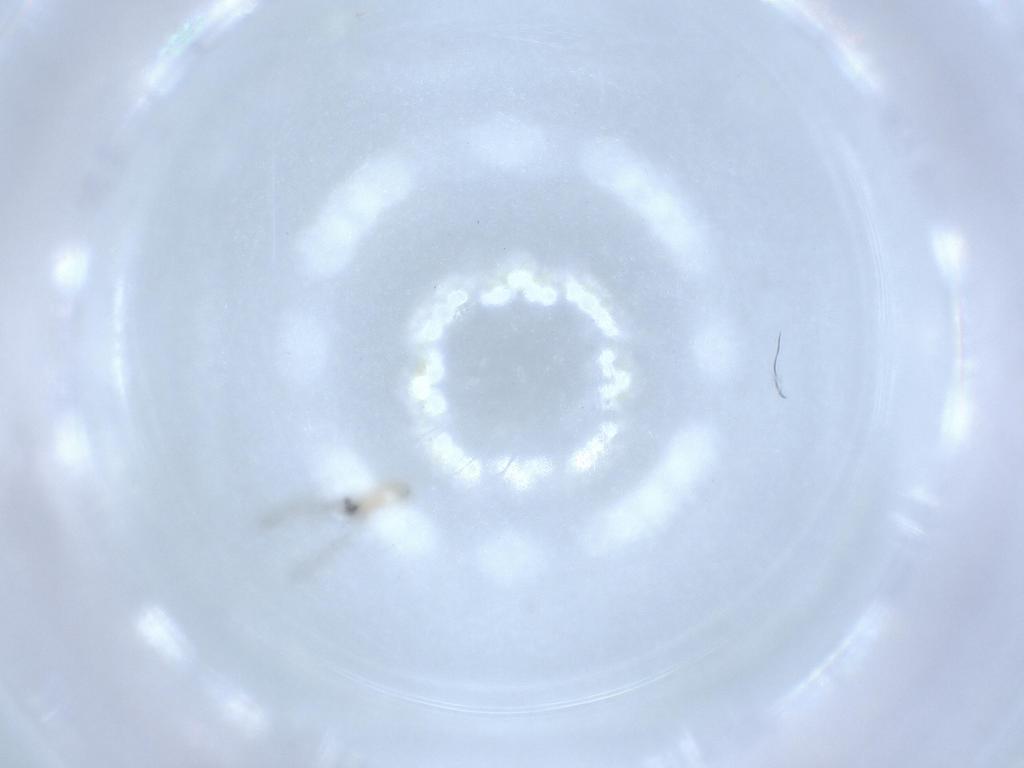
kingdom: Animalia
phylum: Arthropoda
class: Insecta
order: Diptera
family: Cecidomyiidae
